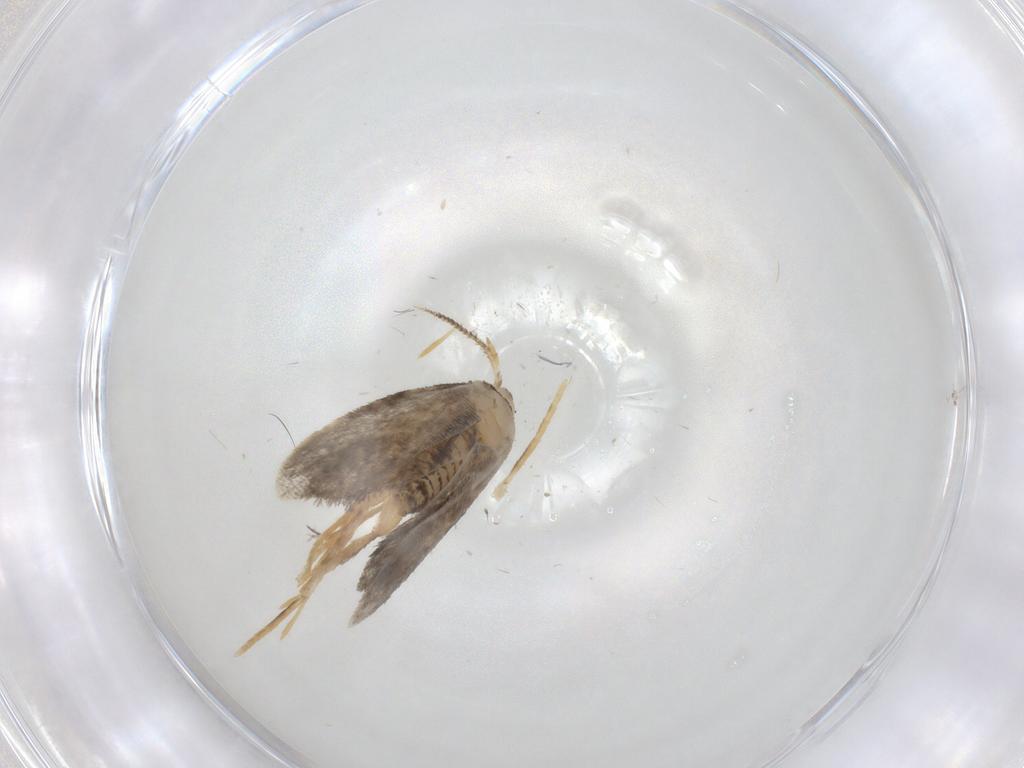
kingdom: Animalia
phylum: Arthropoda
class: Insecta
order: Lepidoptera
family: Psychidae
